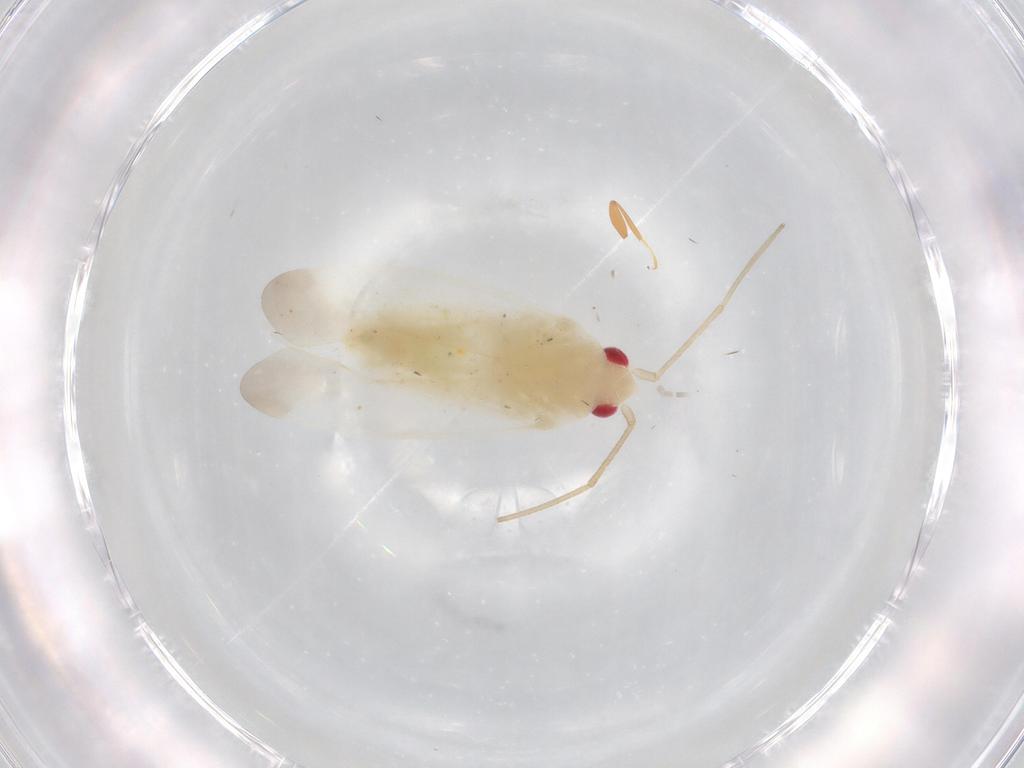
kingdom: Animalia
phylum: Arthropoda
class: Insecta
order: Hemiptera
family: Miridae
